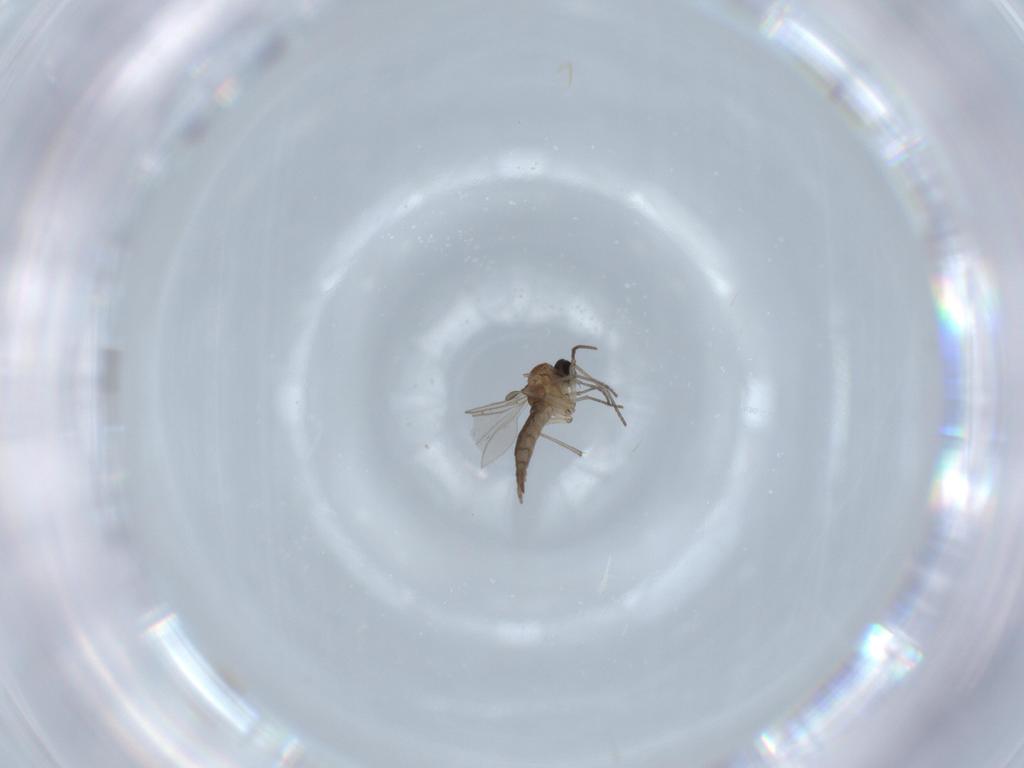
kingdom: Animalia
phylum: Arthropoda
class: Insecta
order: Diptera
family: Sciaridae
